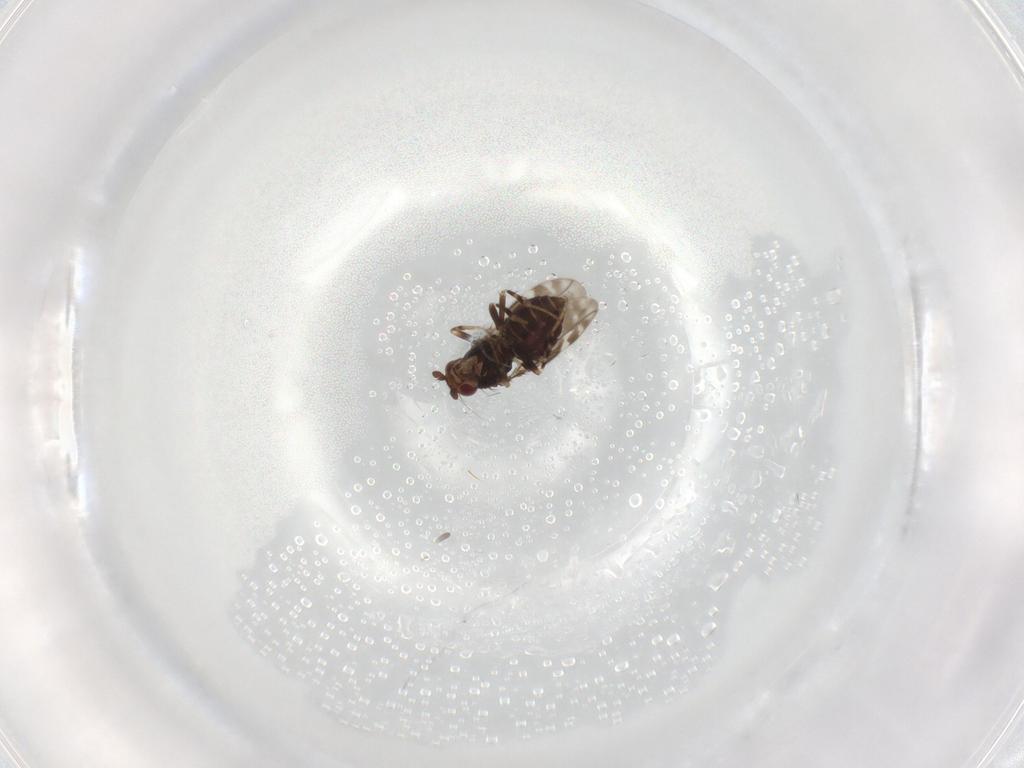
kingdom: Animalia
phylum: Arthropoda
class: Insecta
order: Diptera
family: Sphaeroceridae
